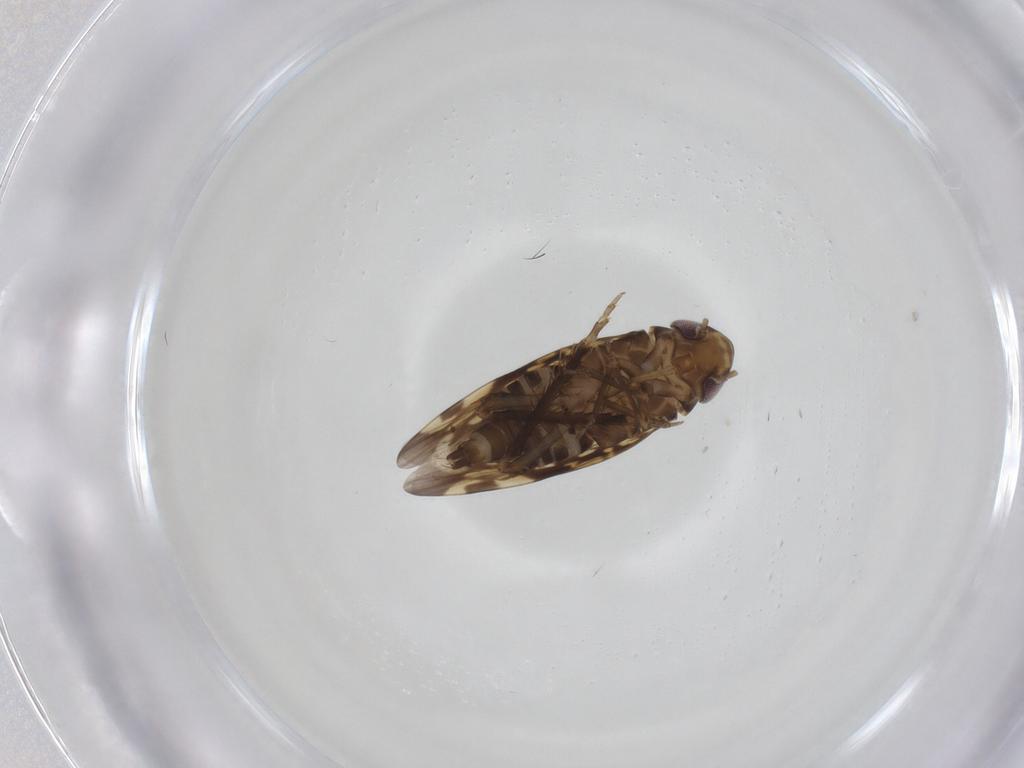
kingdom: Animalia
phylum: Arthropoda
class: Insecta
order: Hemiptera
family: Cicadellidae
